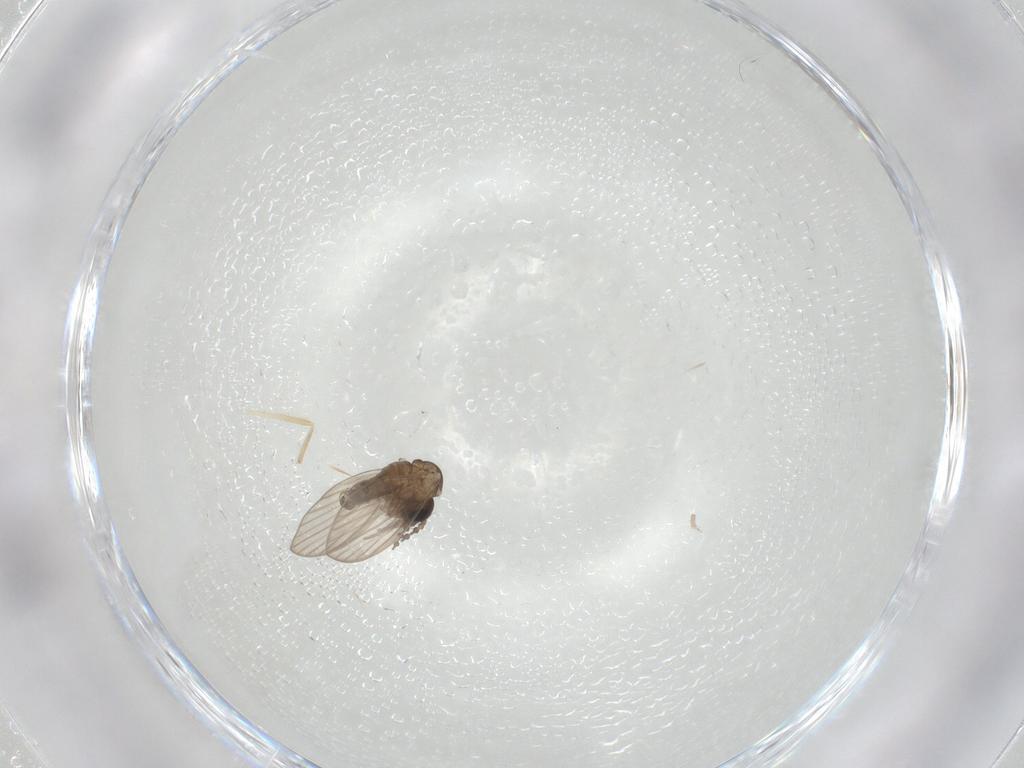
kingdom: Animalia
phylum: Arthropoda
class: Insecta
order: Diptera
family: Psychodidae
